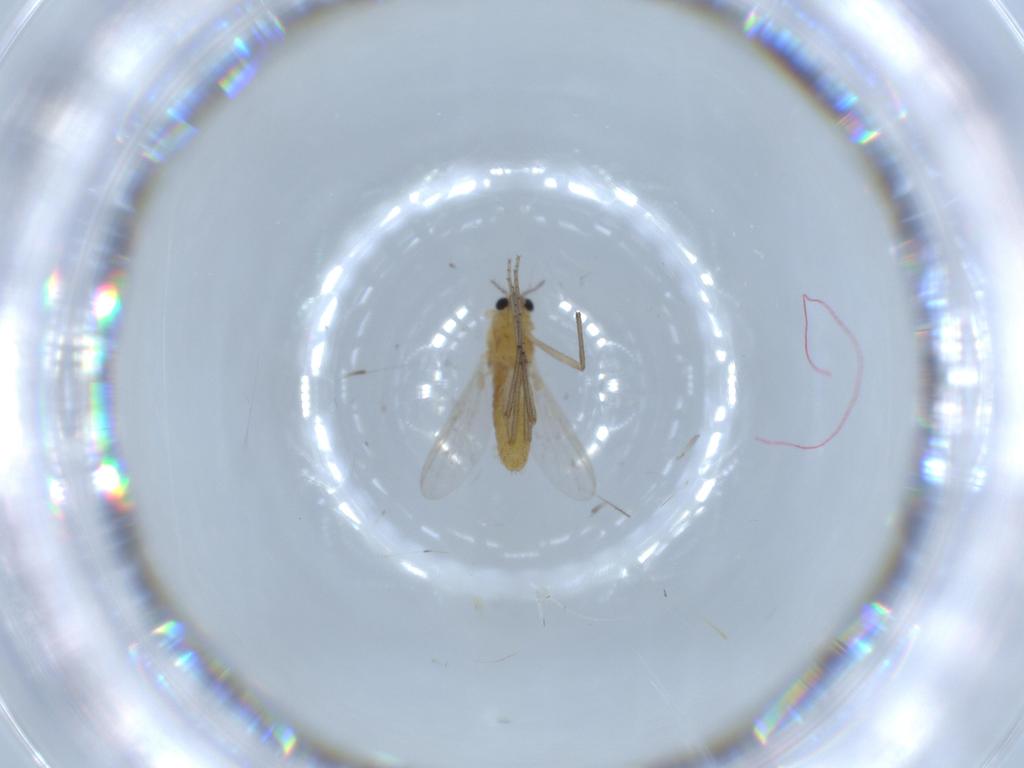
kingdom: Animalia
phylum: Arthropoda
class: Insecta
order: Diptera
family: Chironomidae
